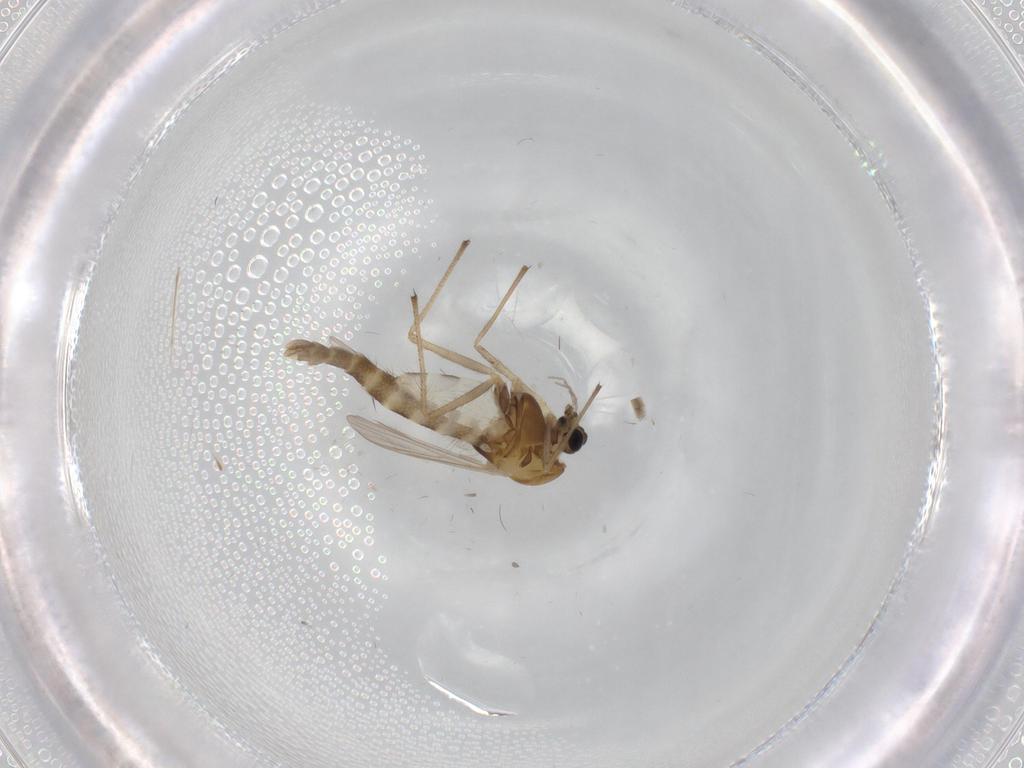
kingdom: Animalia
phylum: Arthropoda
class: Insecta
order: Diptera
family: Chironomidae
